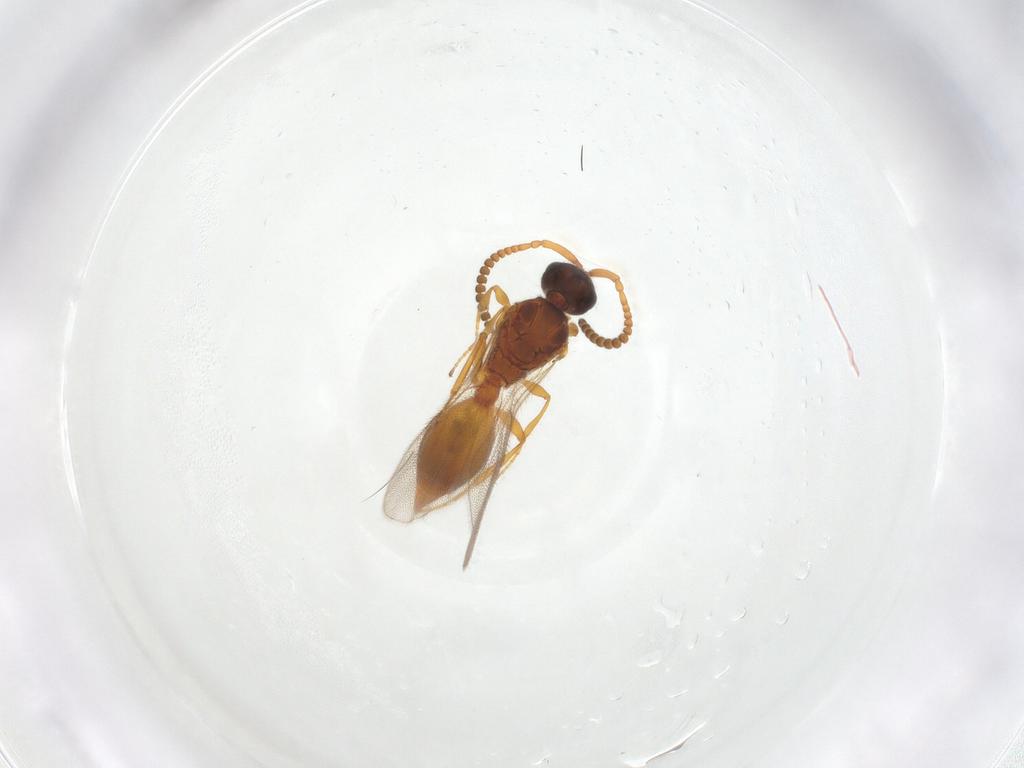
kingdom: Animalia
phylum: Arthropoda
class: Insecta
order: Hymenoptera
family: Diapriidae
